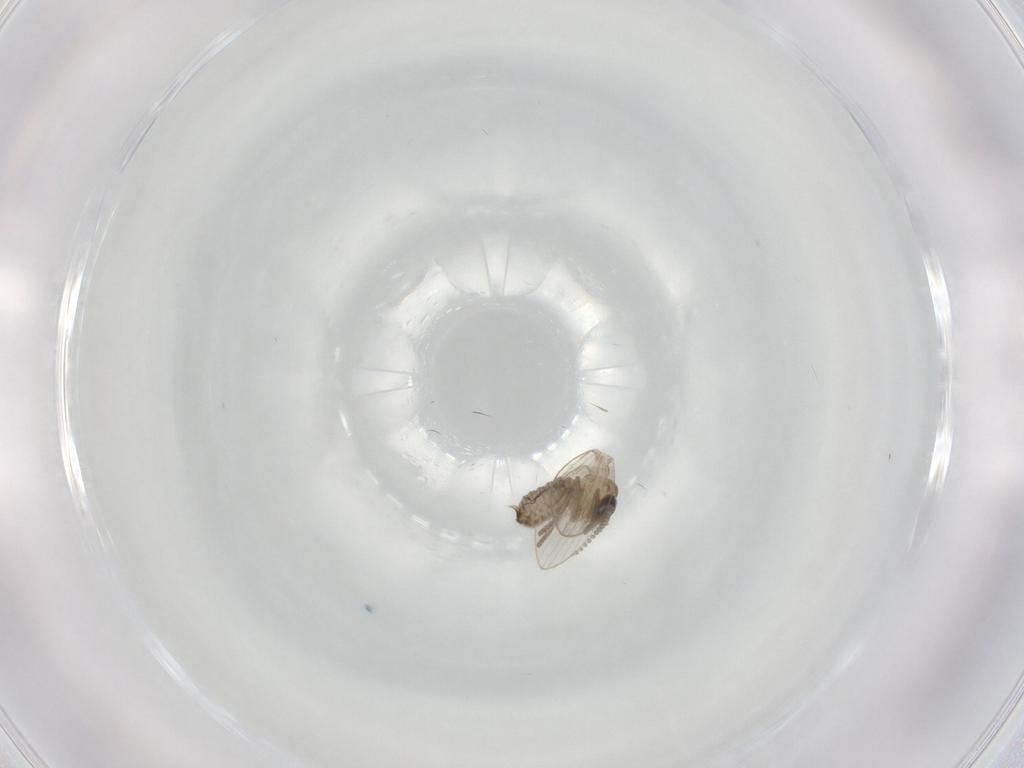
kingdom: Animalia
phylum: Arthropoda
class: Insecta
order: Diptera
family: Psychodidae
